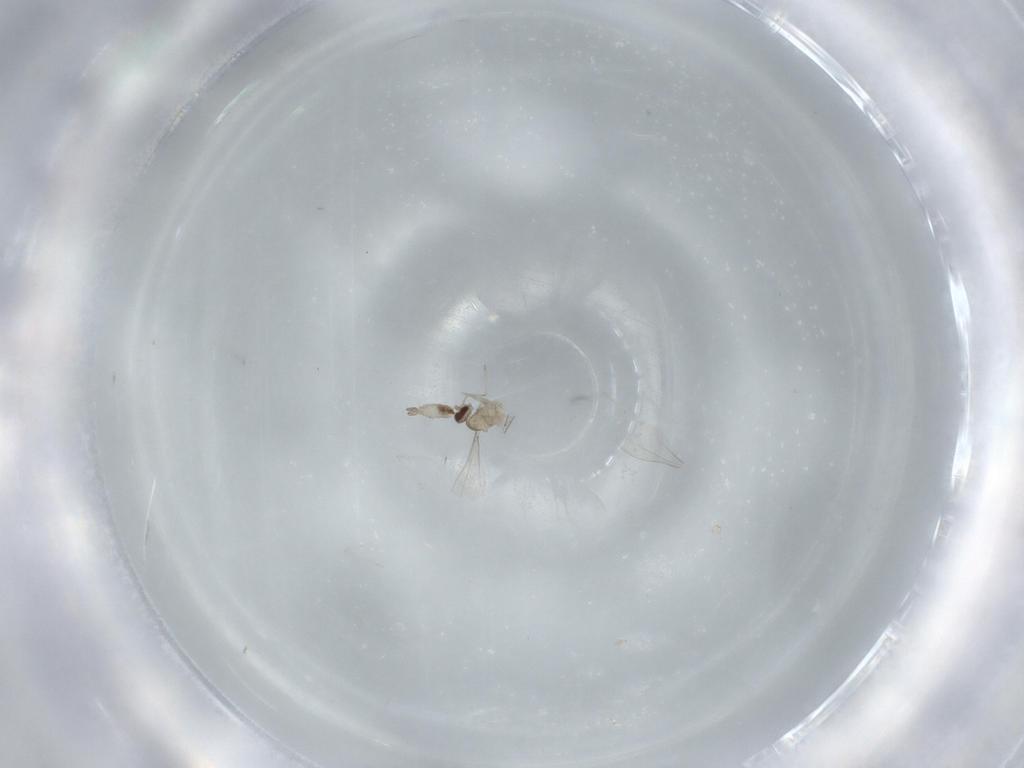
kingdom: Animalia
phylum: Arthropoda
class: Insecta
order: Diptera
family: Cecidomyiidae
